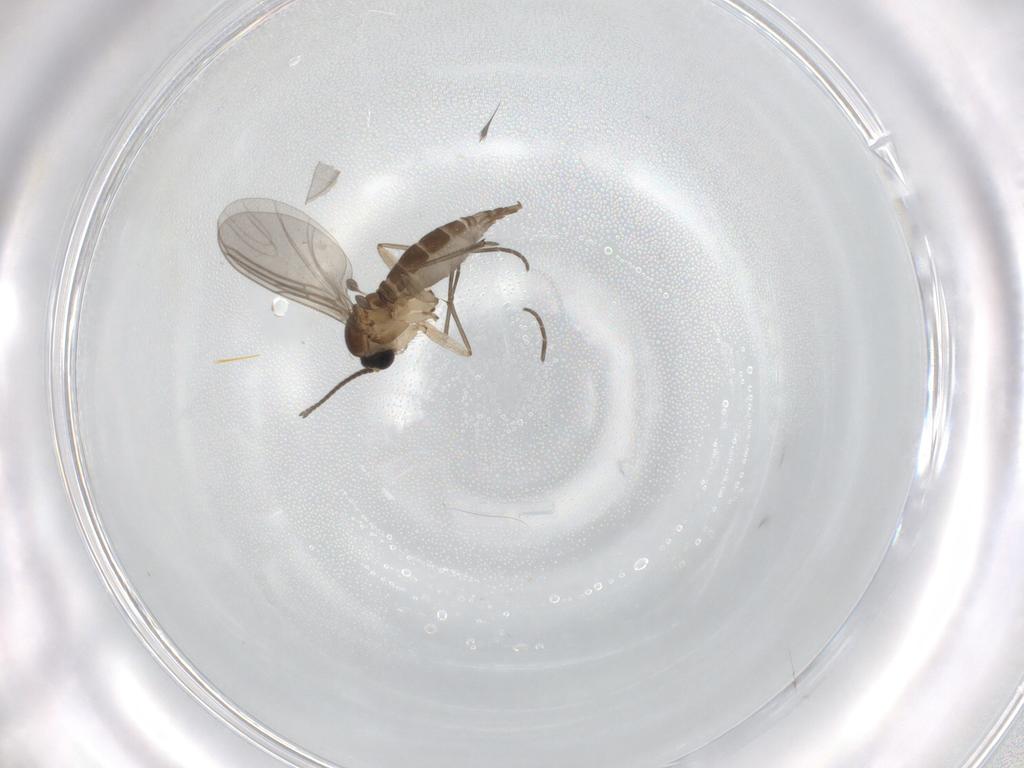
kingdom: Animalia
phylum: Arthropoda
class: Insecta
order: Diptera
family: Sciaridae
